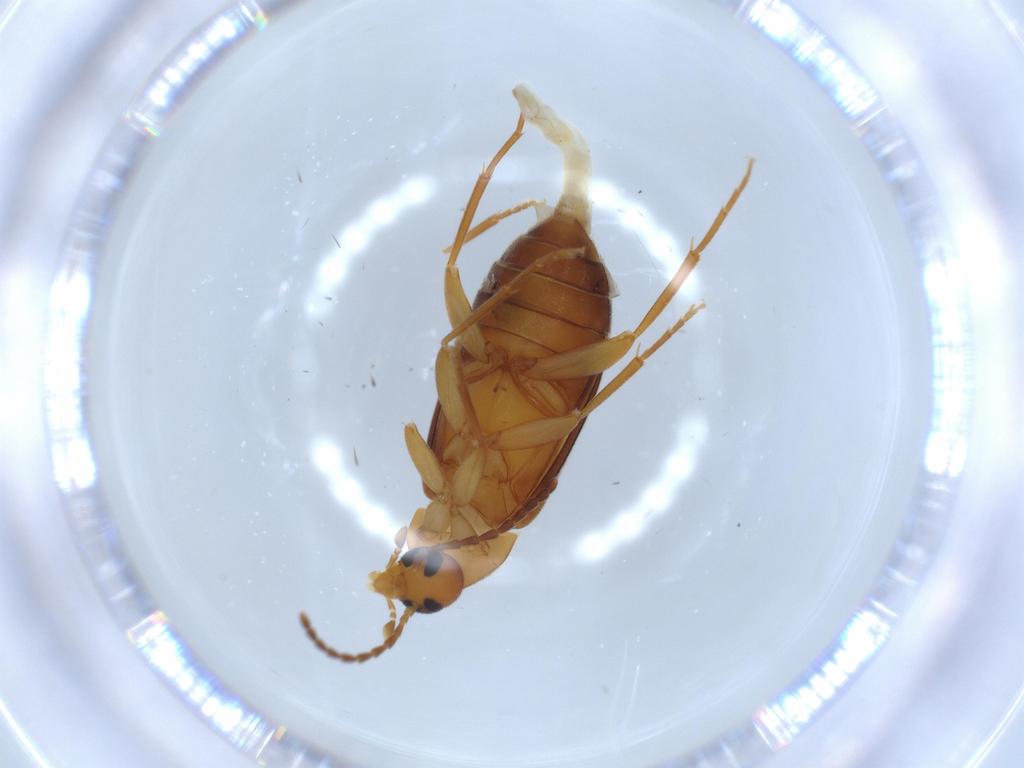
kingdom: Animalia
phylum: Arthropoda
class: Insecta
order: Coleoptera
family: Scraptiidae
